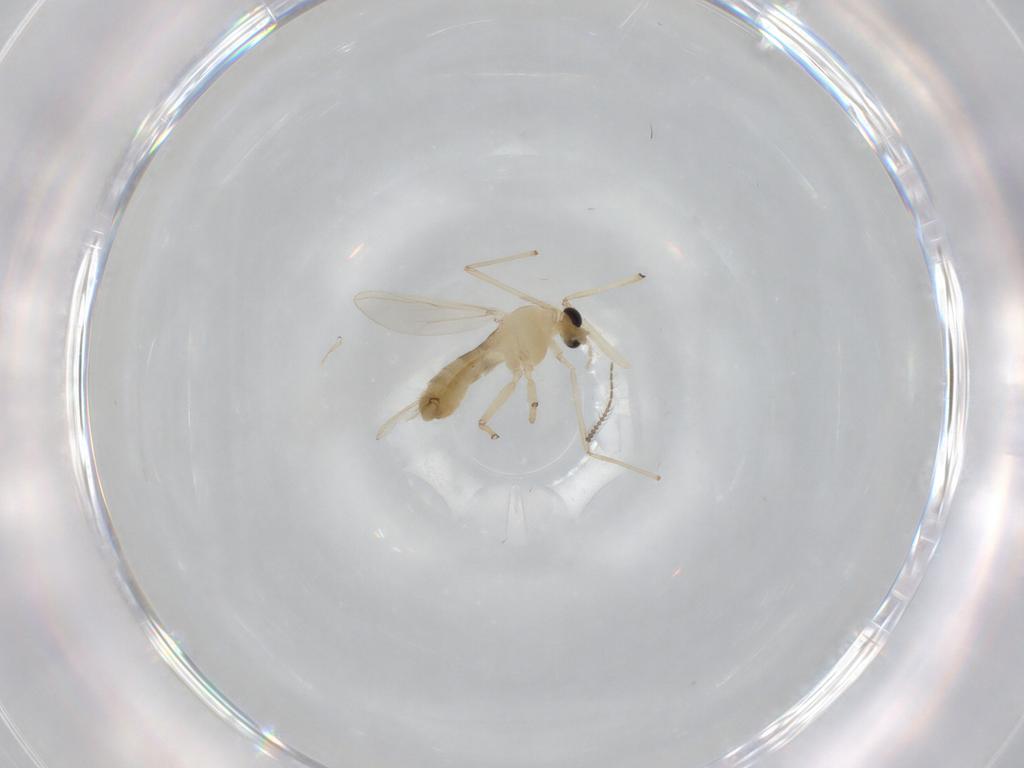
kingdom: Animalia
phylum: Arthropoda
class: Insecta
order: Diptera
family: Chironomidae
